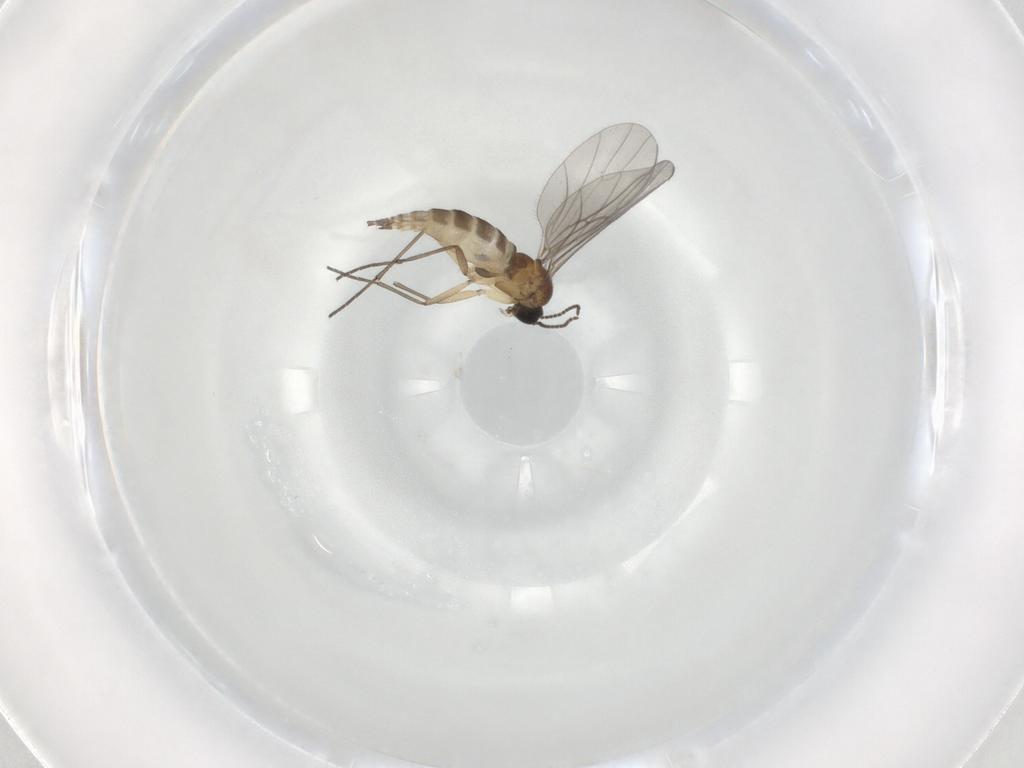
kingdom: Animalia
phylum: Arthropoda
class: Insecta
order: Diptera
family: Sciaridae
